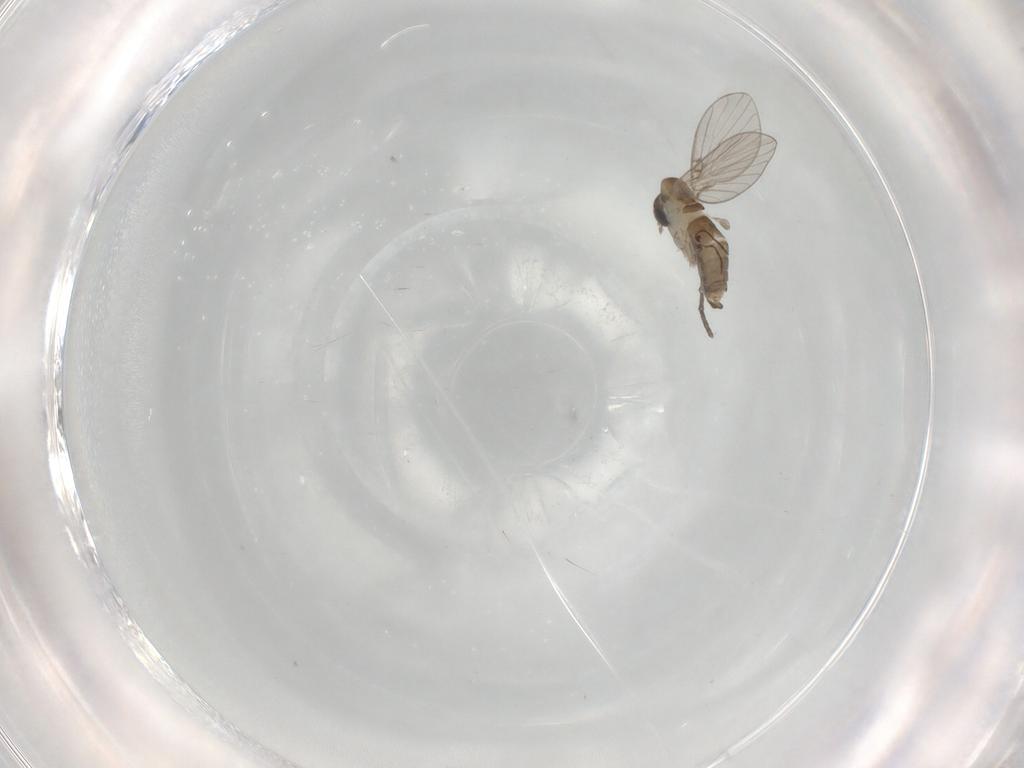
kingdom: Animalia
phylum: Arthropoda
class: Insecta
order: Diptera
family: Psychodidae
